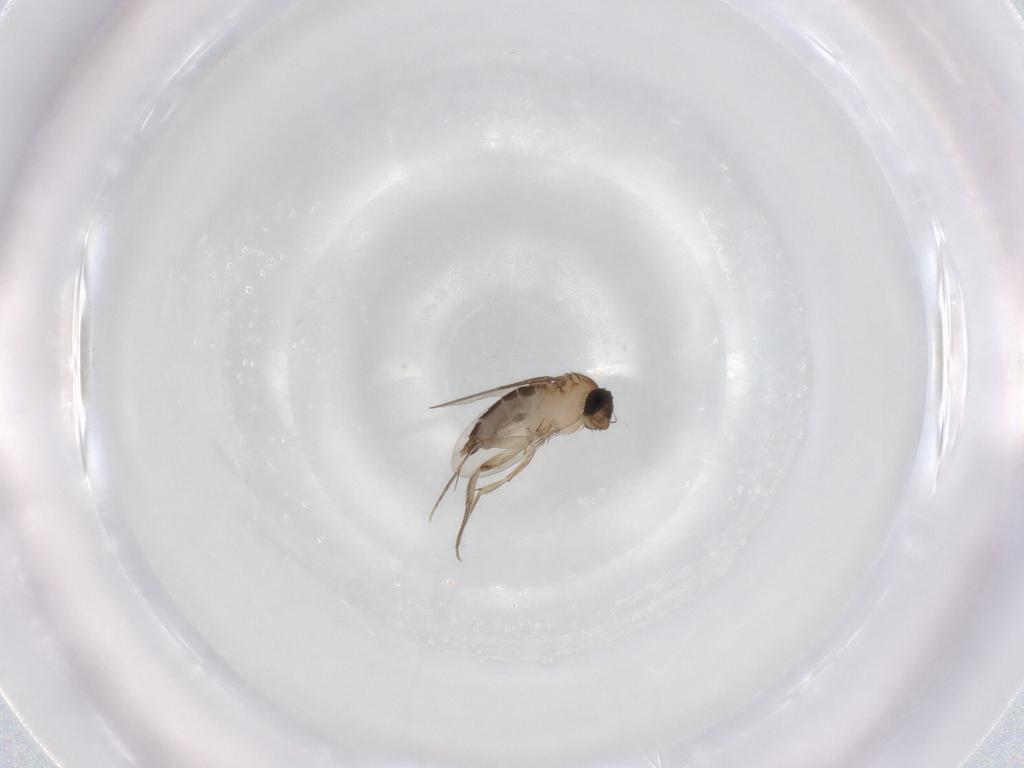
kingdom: Animalia
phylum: Arthropoda
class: Insecta
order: Diptera
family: Phoridae
